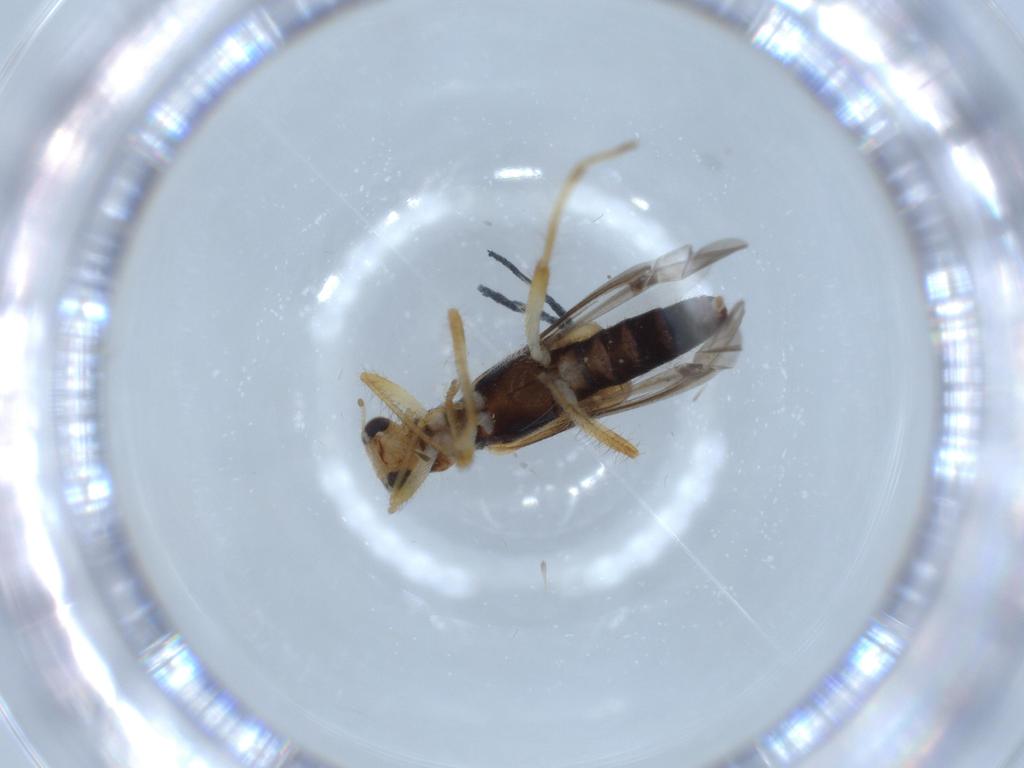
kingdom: Animalia
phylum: Arthropoda
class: Insecta
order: Coleoptera
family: Cleridae
